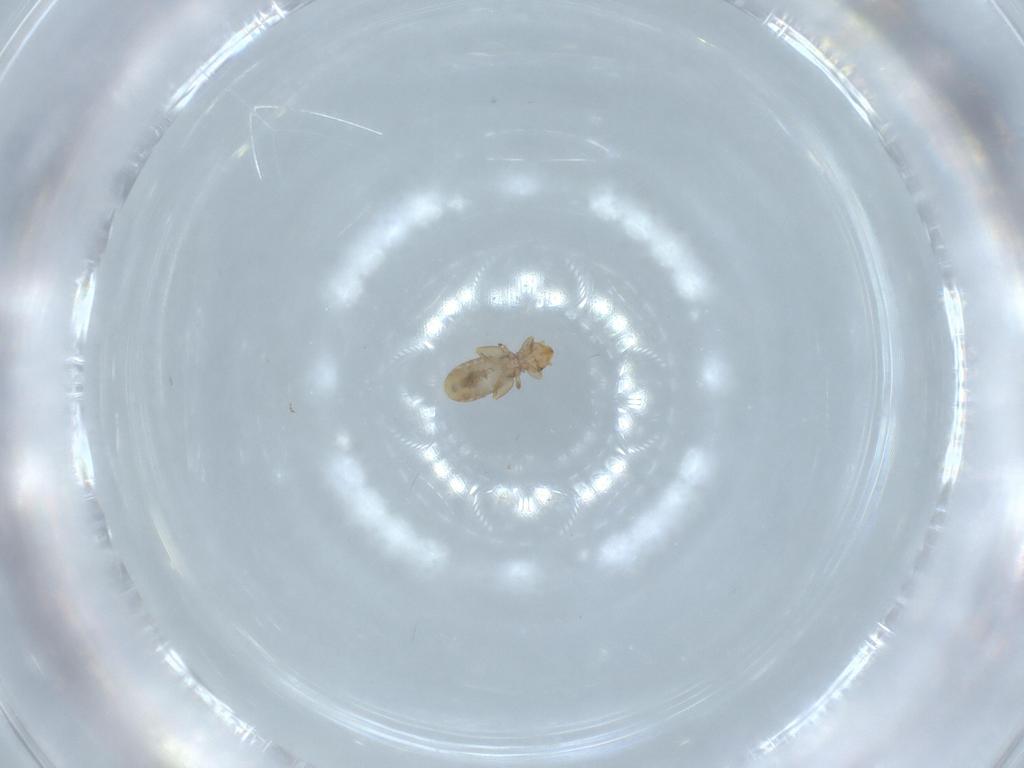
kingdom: Animalia
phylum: Arthropoda
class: Insecta
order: Psocodea
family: Liposcelididae
